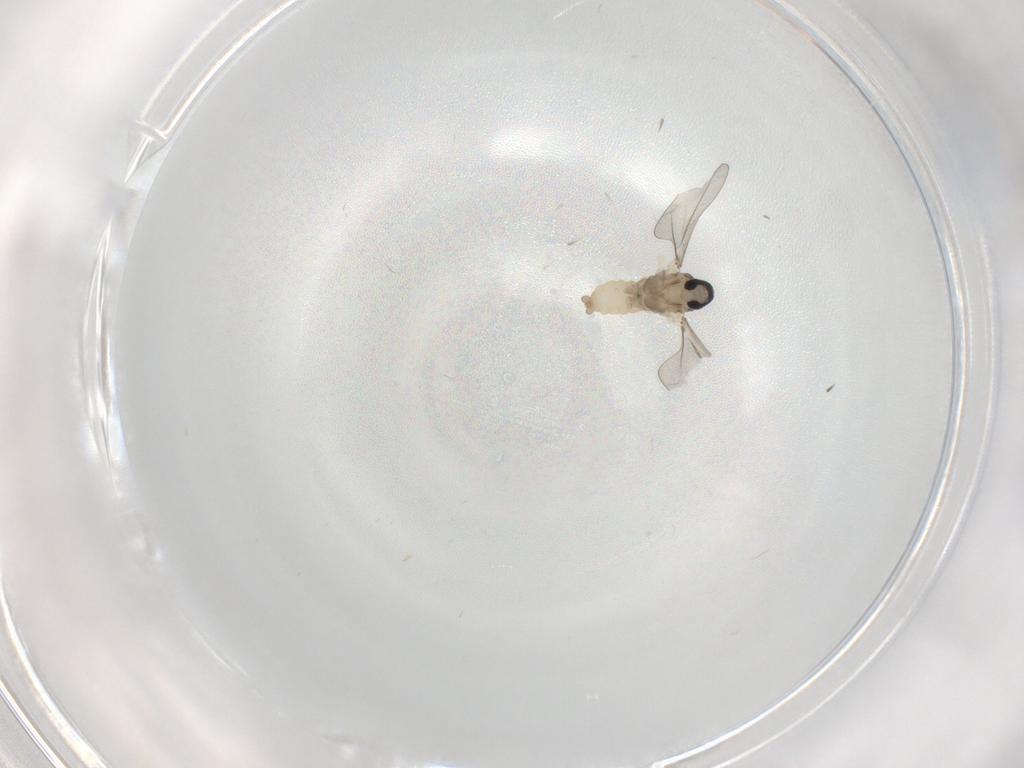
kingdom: Animalia
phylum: Arthropoda
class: Insecta
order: Diptera
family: Cecidomyiidae
